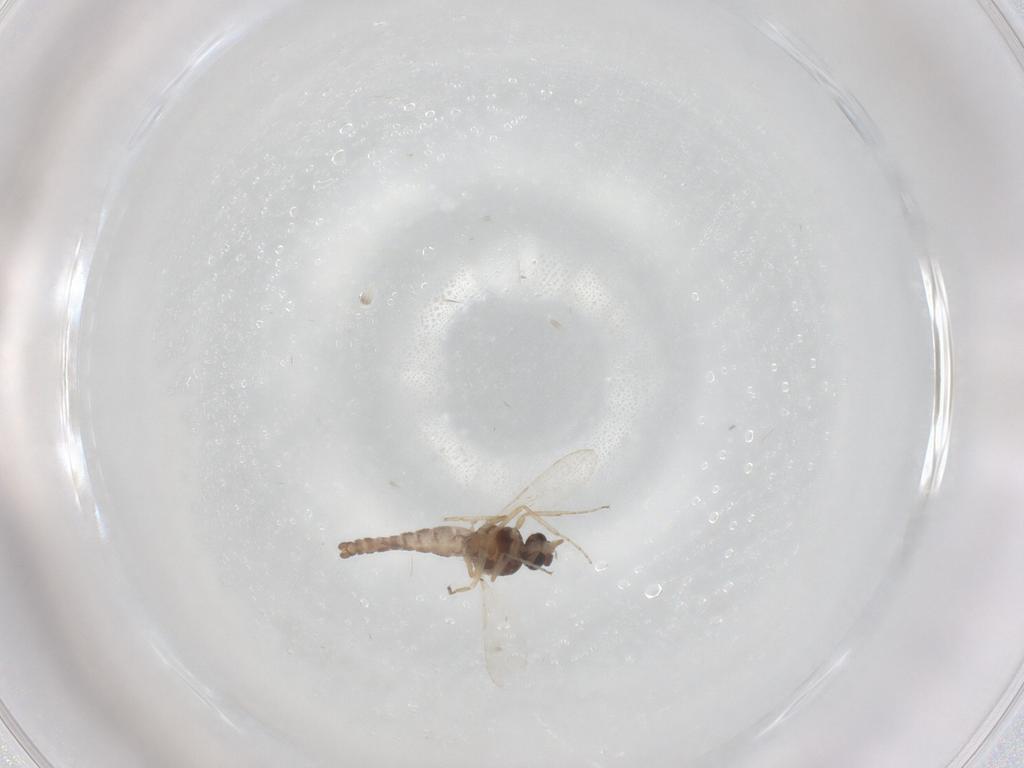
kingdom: Animalia
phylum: Arthropoda
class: Insecta
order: Diptera
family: Psychodidae
